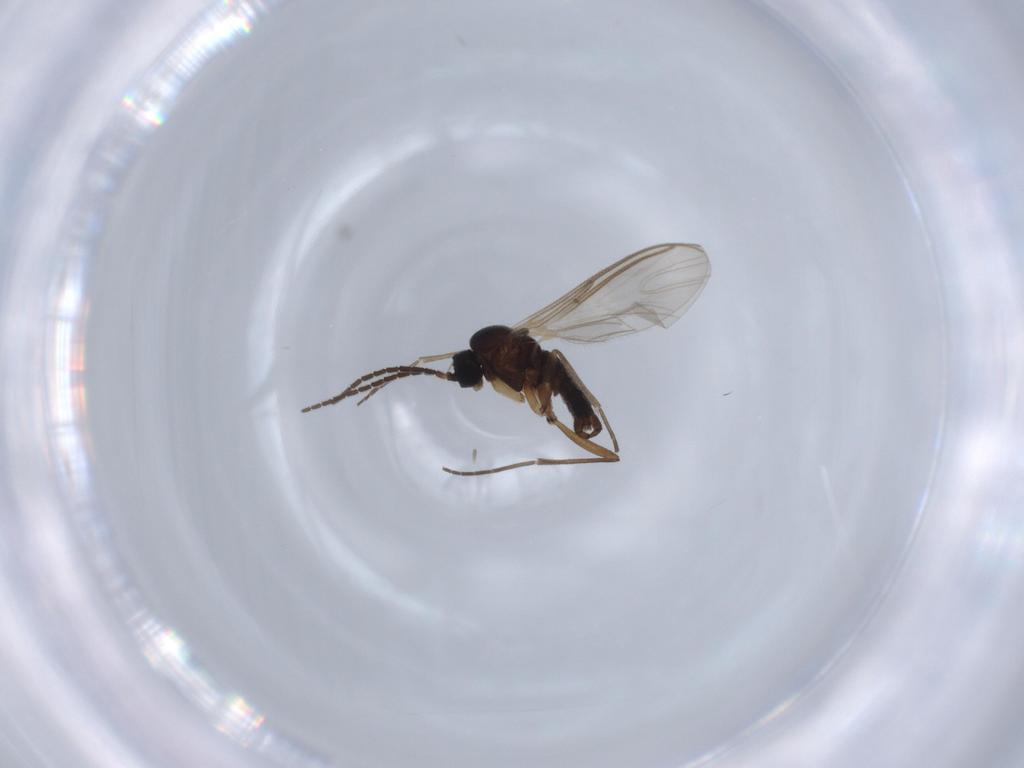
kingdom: Animalia
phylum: Arthropoda
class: Insecta
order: Diptera
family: Sciaridae
